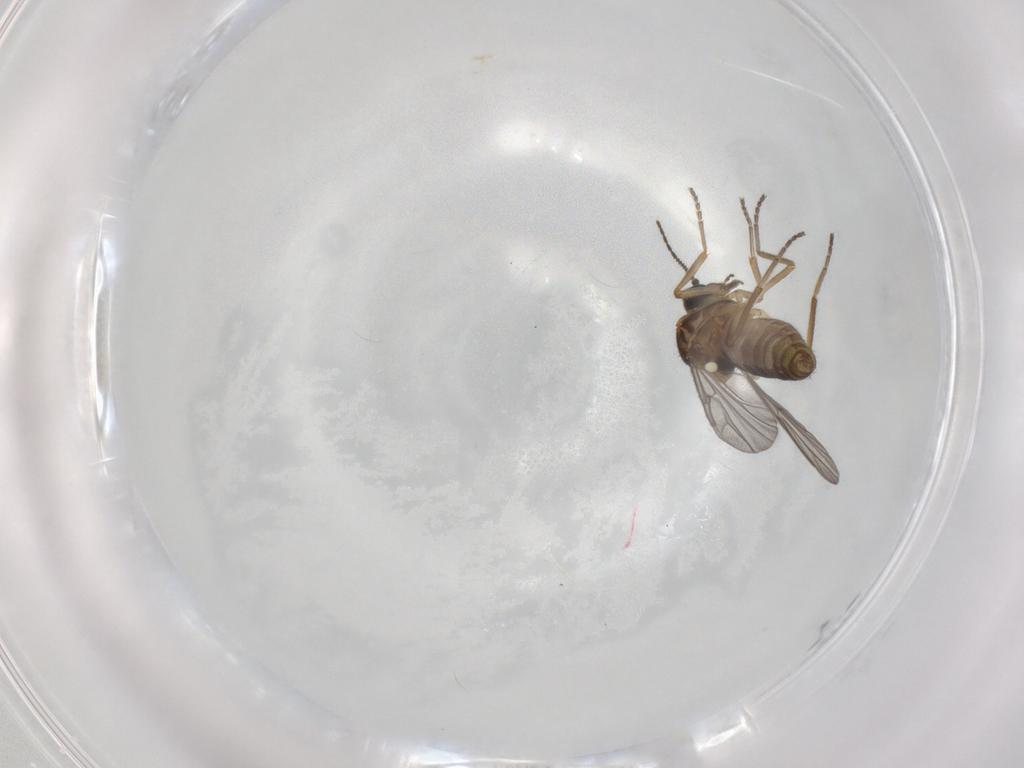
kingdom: Animalia
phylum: Arthropoda
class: Insecta
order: Diptera
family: Ceratopogonidae
